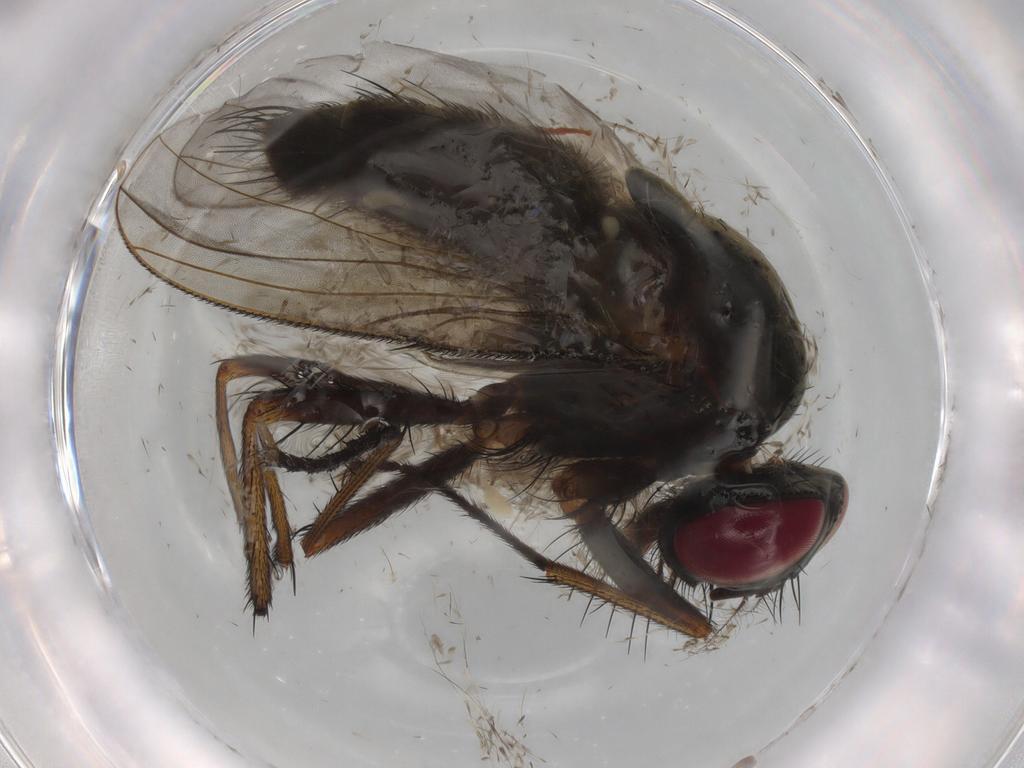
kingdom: Animalia
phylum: Arthropoda
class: Insecta
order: Diptera
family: Muscidae
